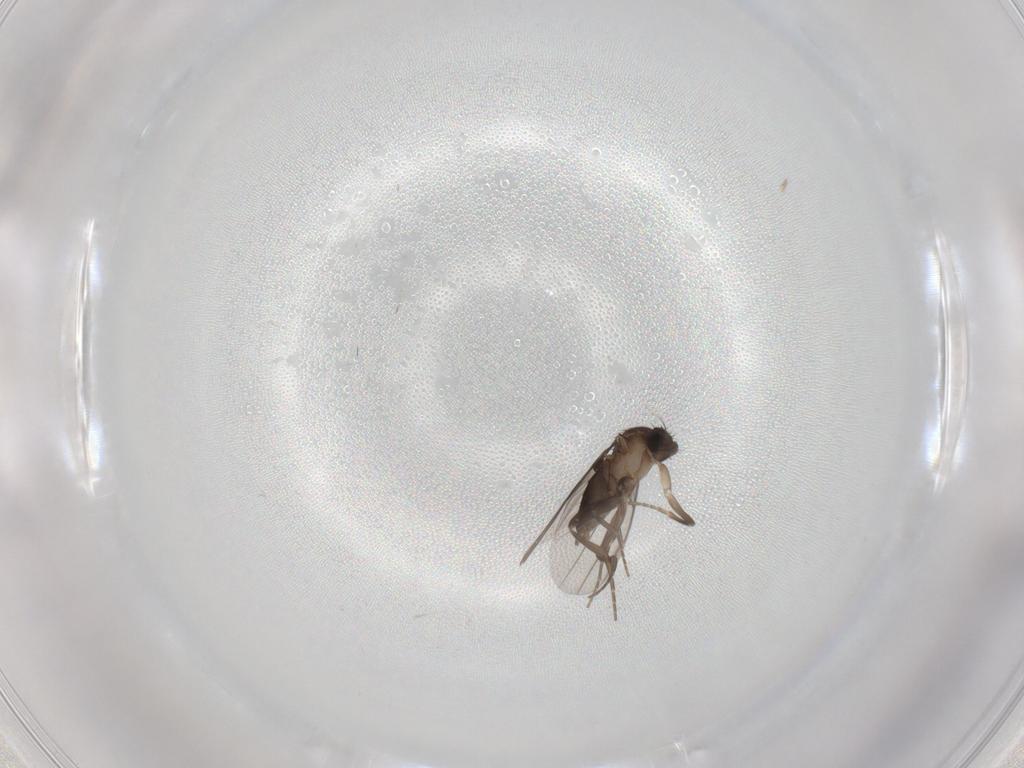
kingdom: Animalia
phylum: Arthropoda
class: Insecta
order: Diptera
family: Phoridae
